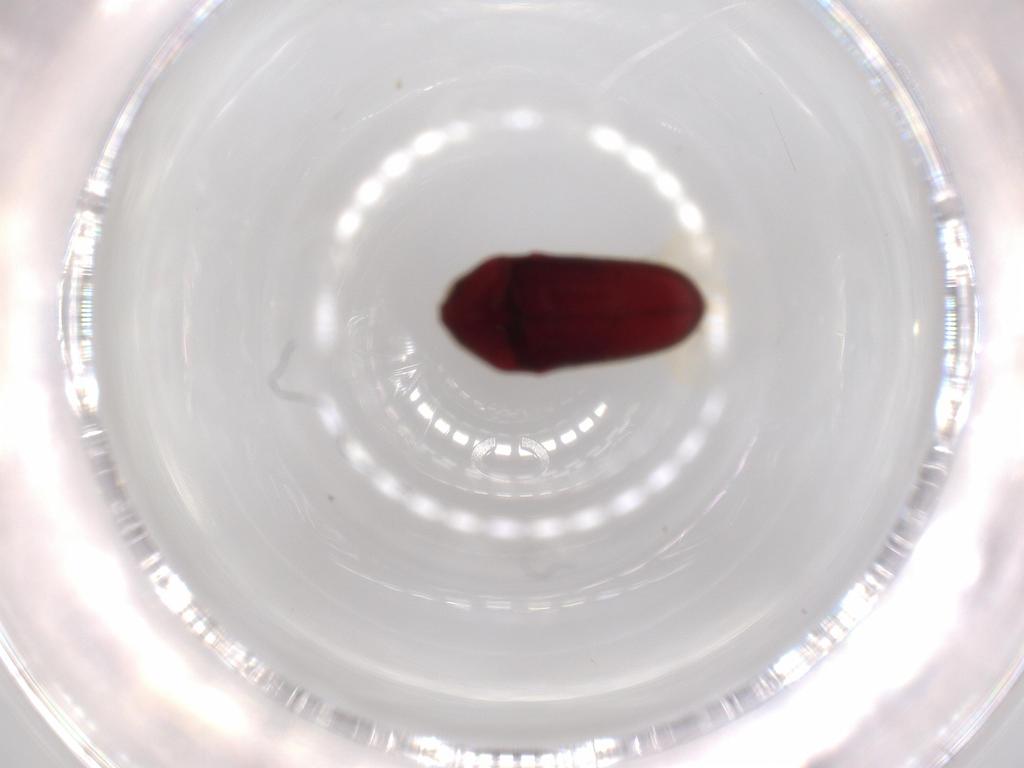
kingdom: Animalia
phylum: Arthropoda
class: Insecta
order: Coleoptera
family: Throscidae
